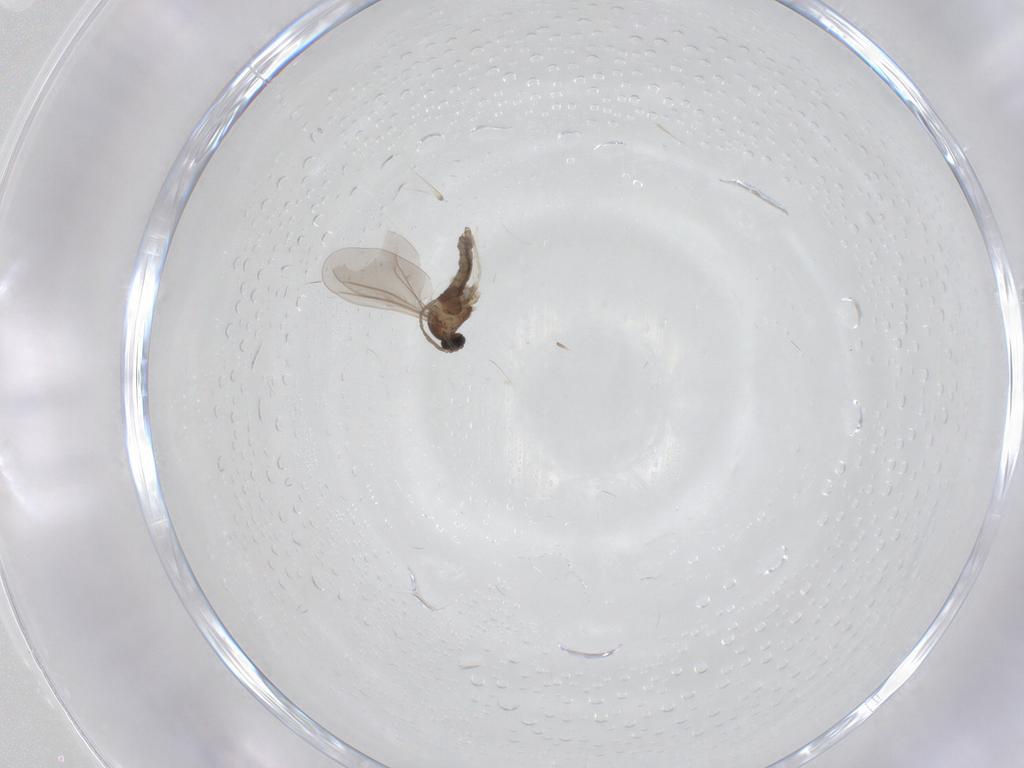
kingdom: Animalia
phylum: Arthropoda
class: Insecta
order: Diptera
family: Cecidomyiidae
